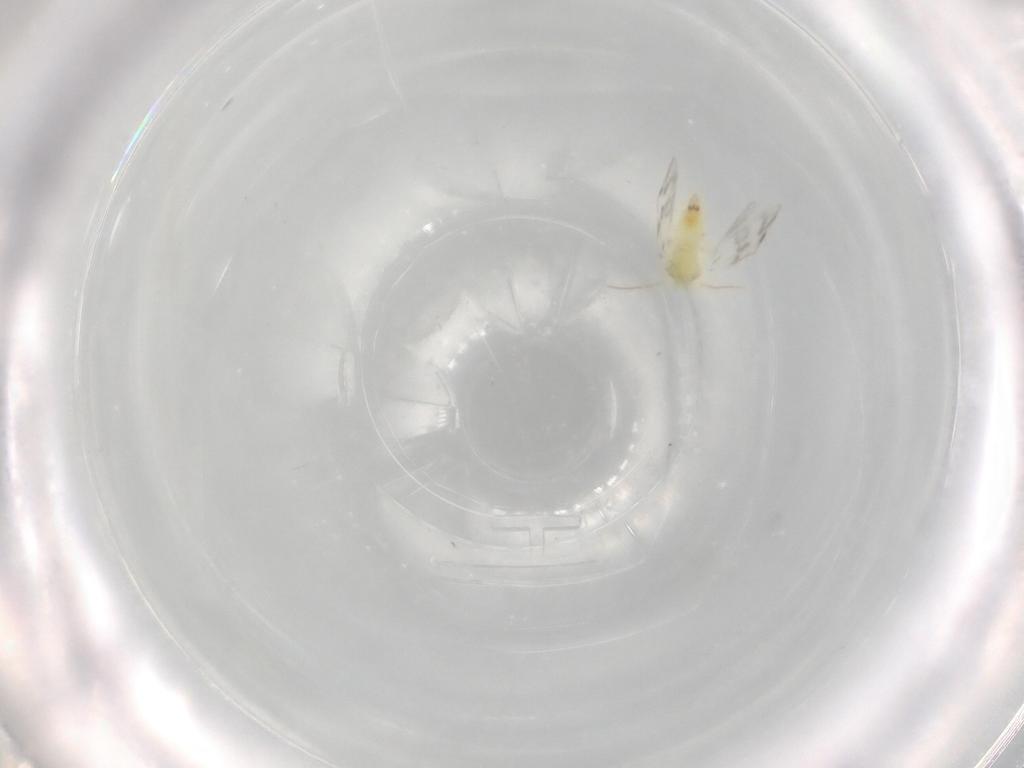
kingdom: Animalia
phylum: Arthropoda
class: Insecta
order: Hemiptera
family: Aleyrodidae
